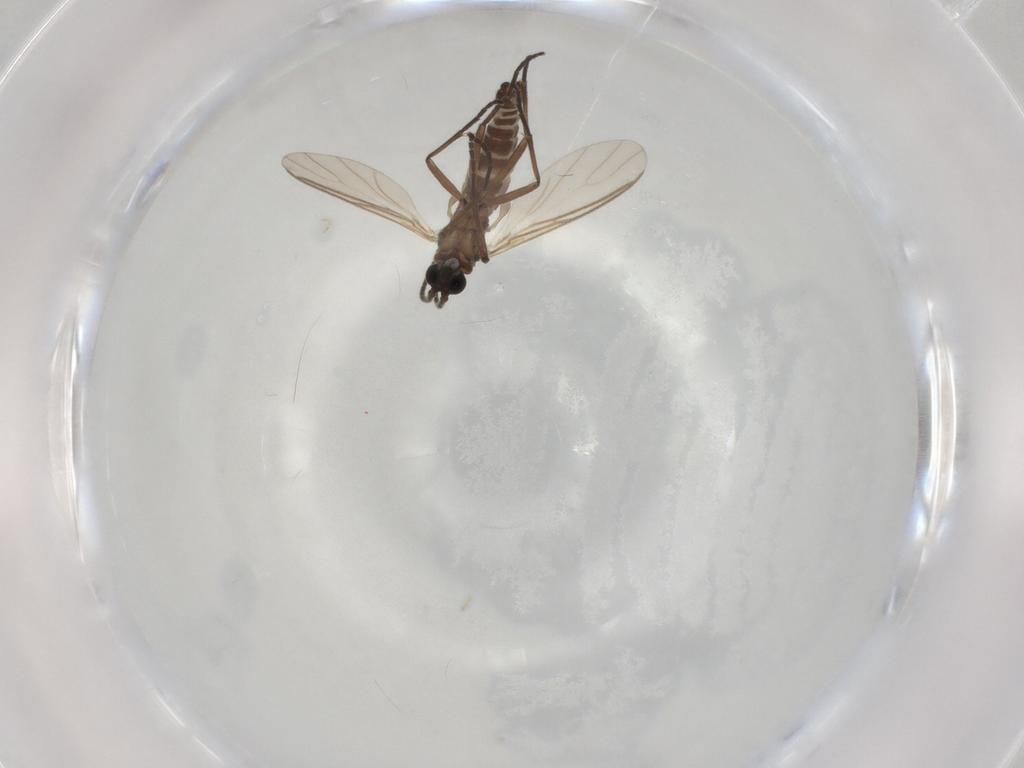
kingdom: Animalia
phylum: Arthropoda
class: Insecta
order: Diptera
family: Sciaridae
